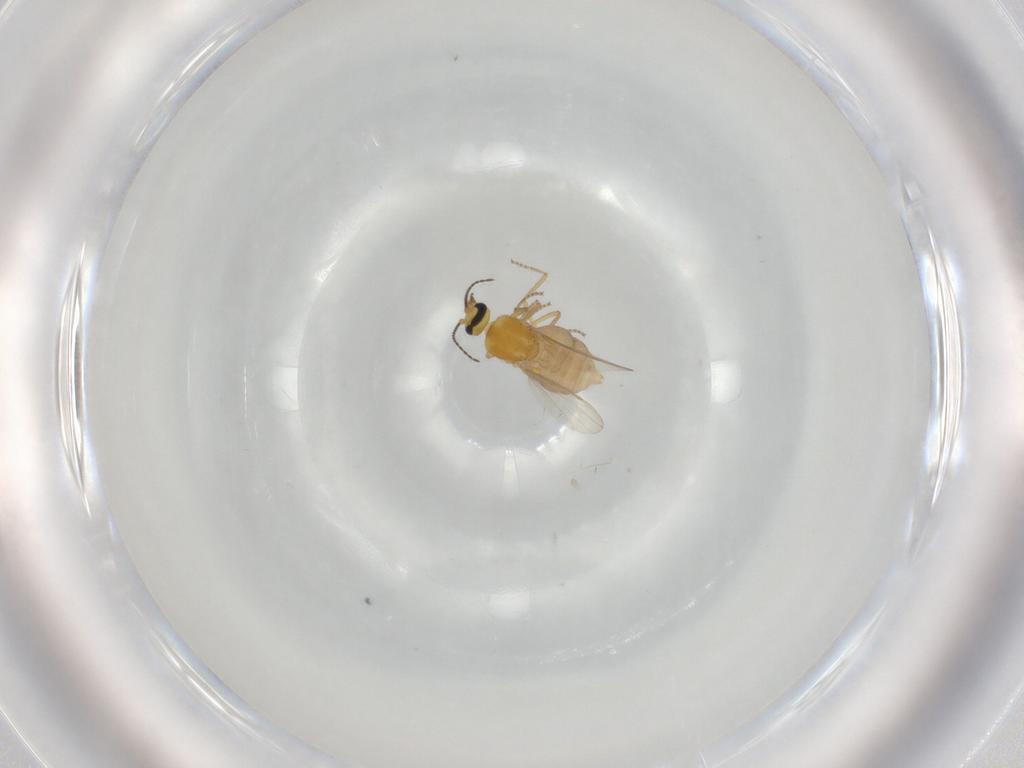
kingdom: Animalia
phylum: Arthropoda
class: Insecta
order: Diptera
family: Ceratopogonidae
